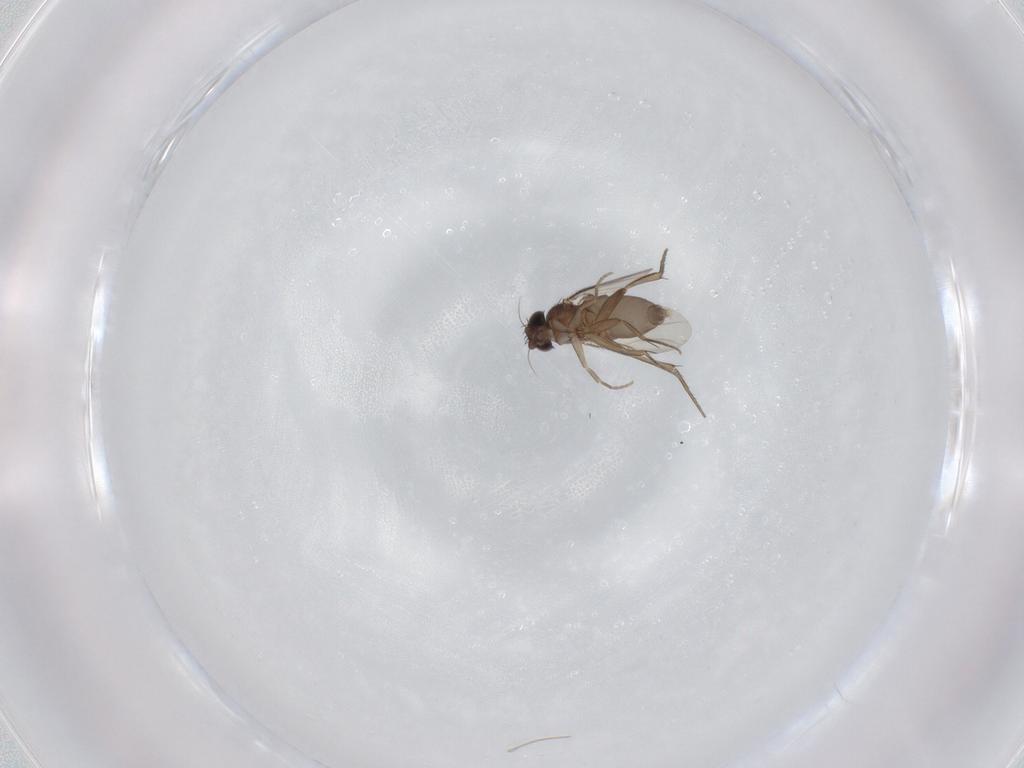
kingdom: Animalia
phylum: Arthropoda
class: Insecta
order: Diptera
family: Phoridae
